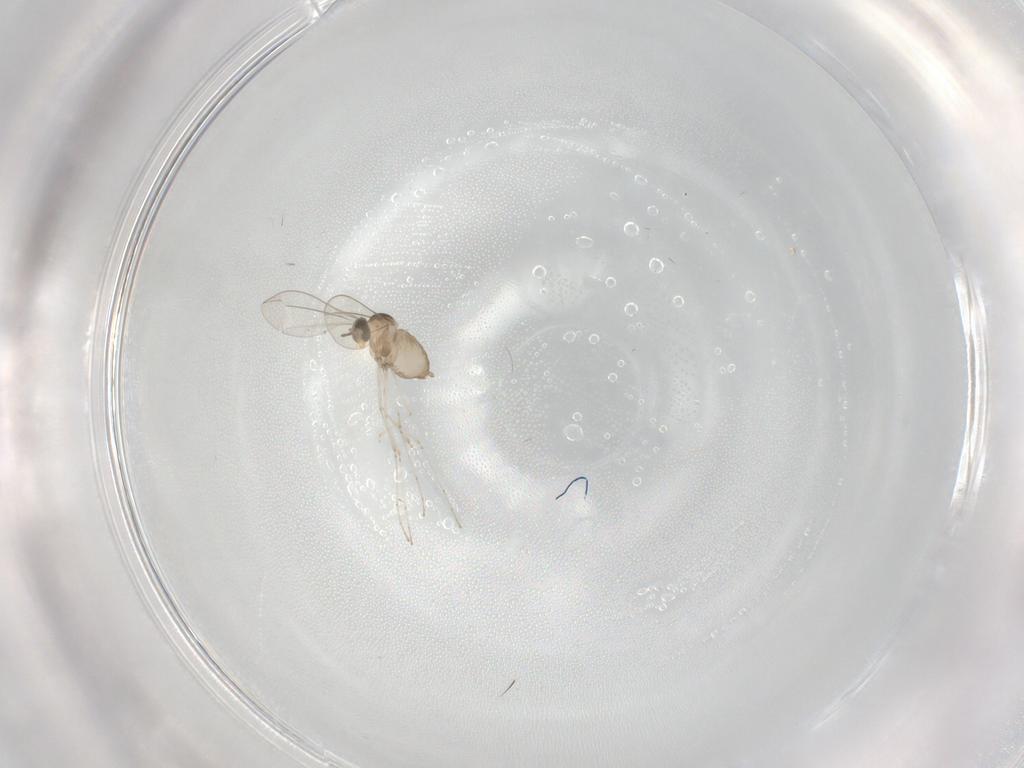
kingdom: Animalia
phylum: Arthropoda
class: Insecta
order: Diptera
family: Cecidomyiidae
